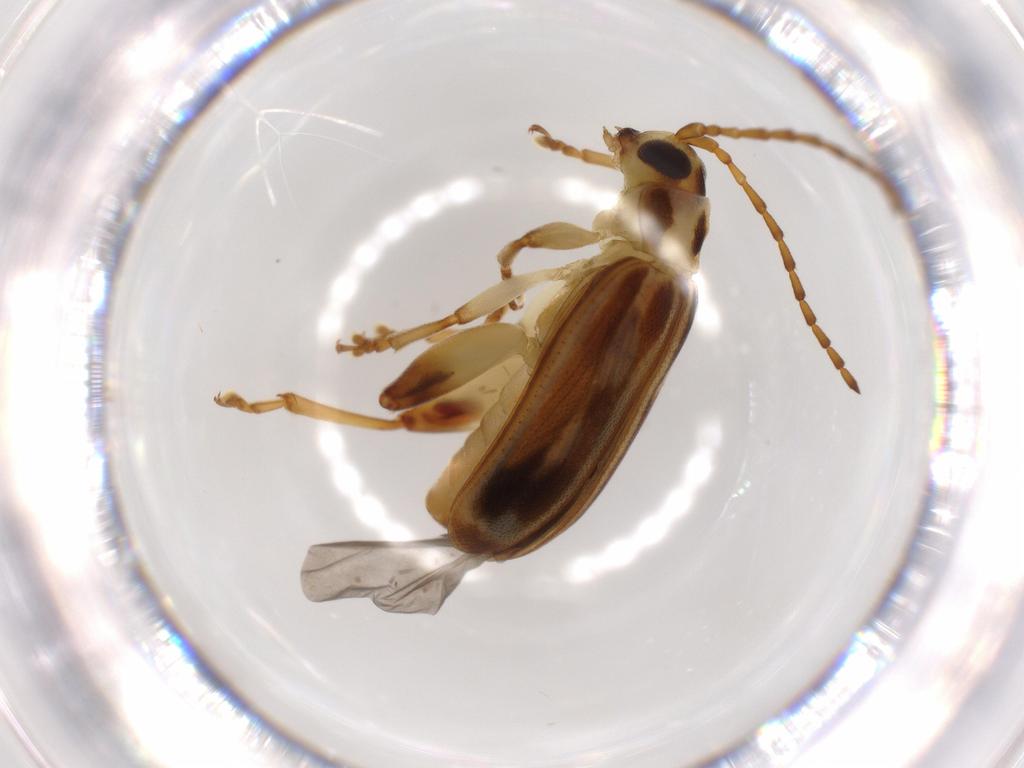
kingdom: Animalia
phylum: Arthropoda
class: Insecta
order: Coleoptera
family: Chrysomelidae
